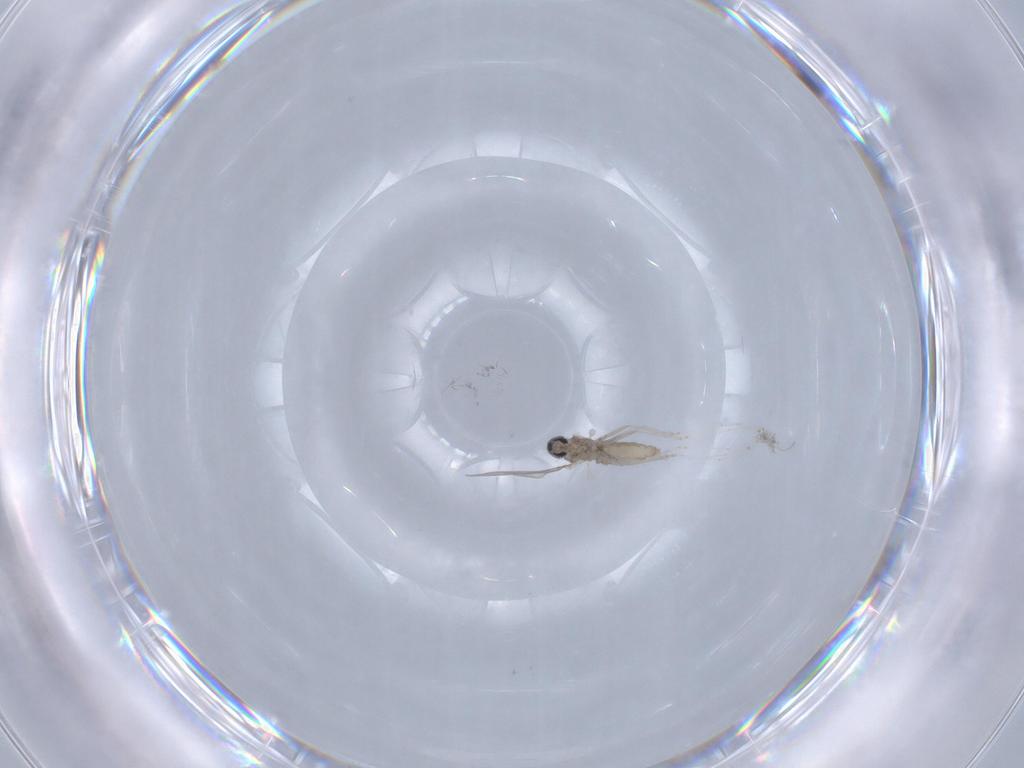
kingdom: Animalia
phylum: Arthropoda
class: Insecta
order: Diptera
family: Cecidomyiidae
